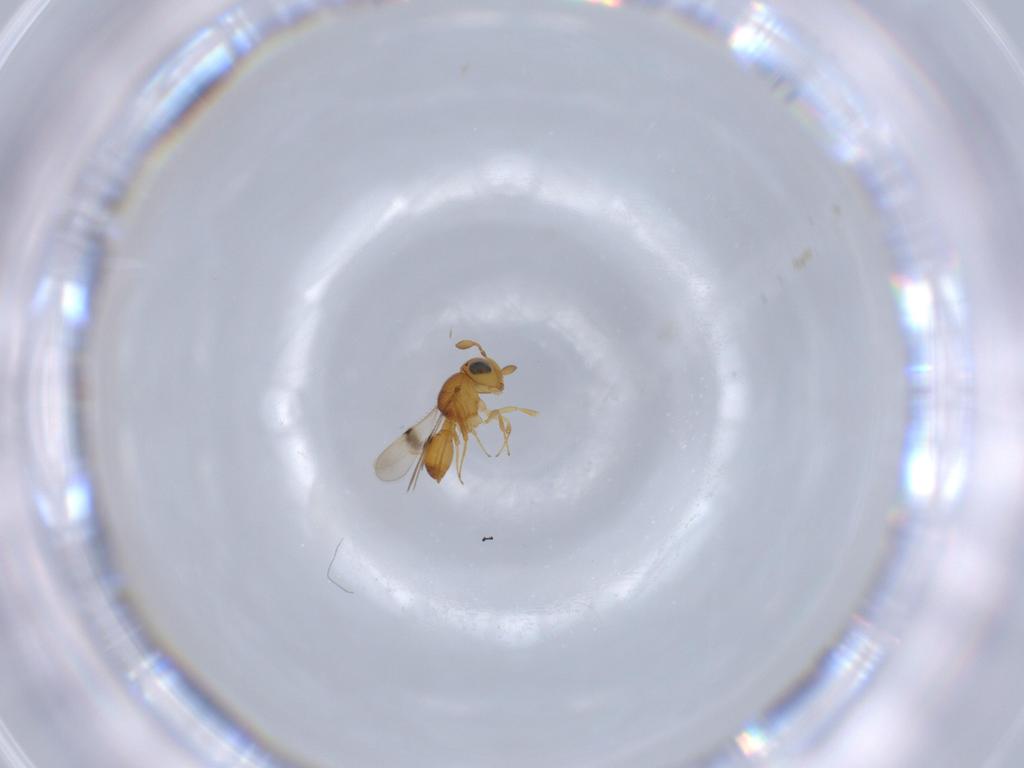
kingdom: Animalia
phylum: Arthropoda
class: Insecta
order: Hymenoptera
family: Scelionidae
